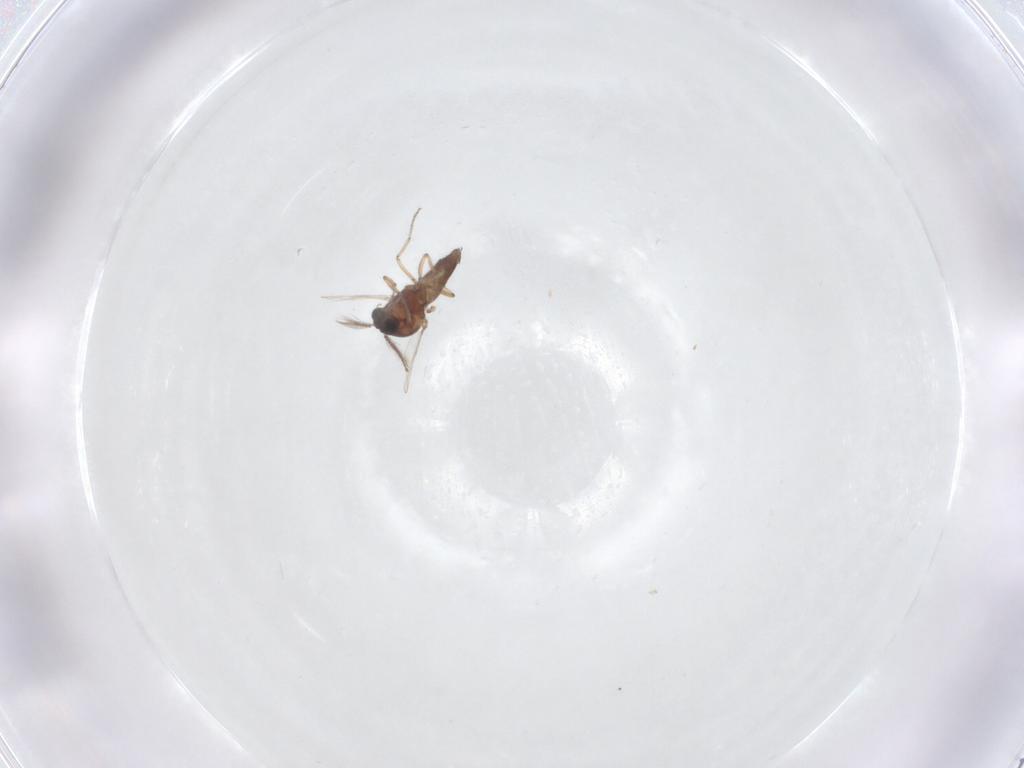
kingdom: Animalia
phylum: Arthropoda
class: Insecta
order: Diptera
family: Ceratopogonidae
